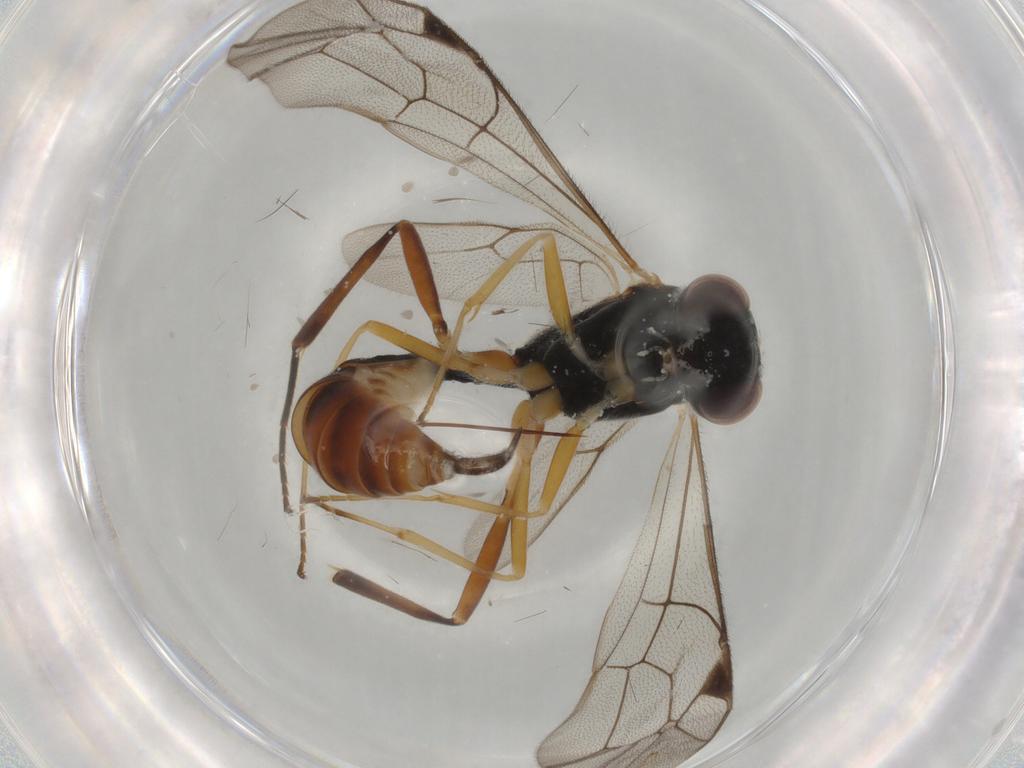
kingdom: Animalia
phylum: Arthropoda
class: Insecta
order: Hymenoptera
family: Ichneumonidae
